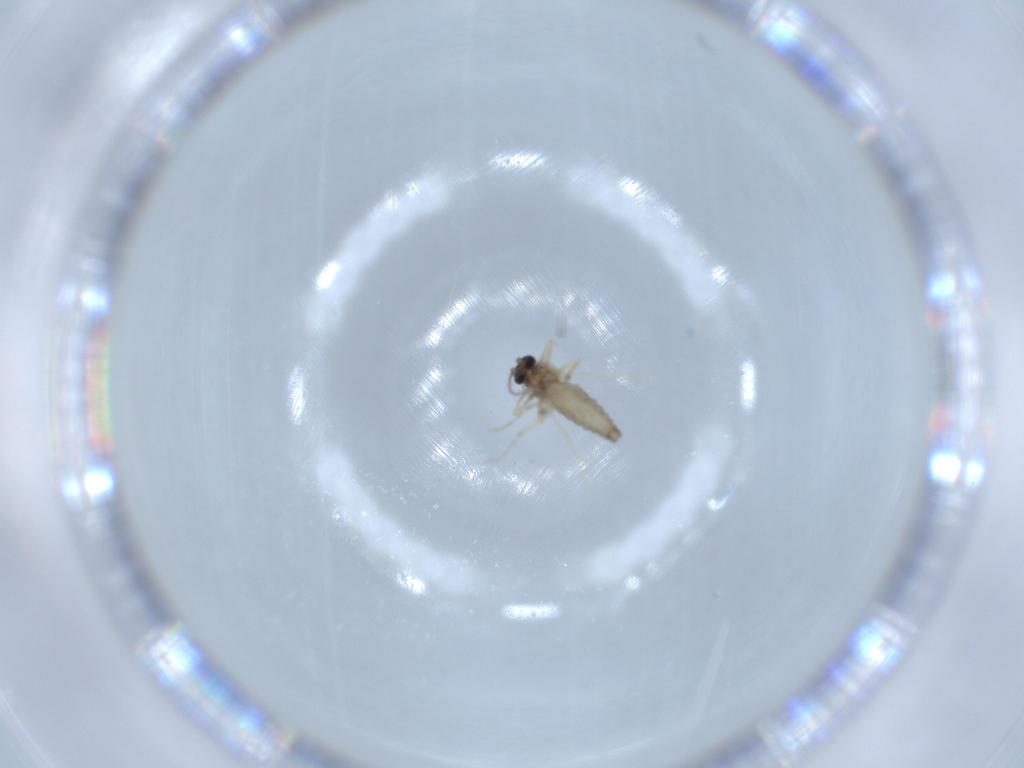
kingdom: Animalia
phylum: Arthropoda
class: Insecta
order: Diptera
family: Ceratopogonidae
